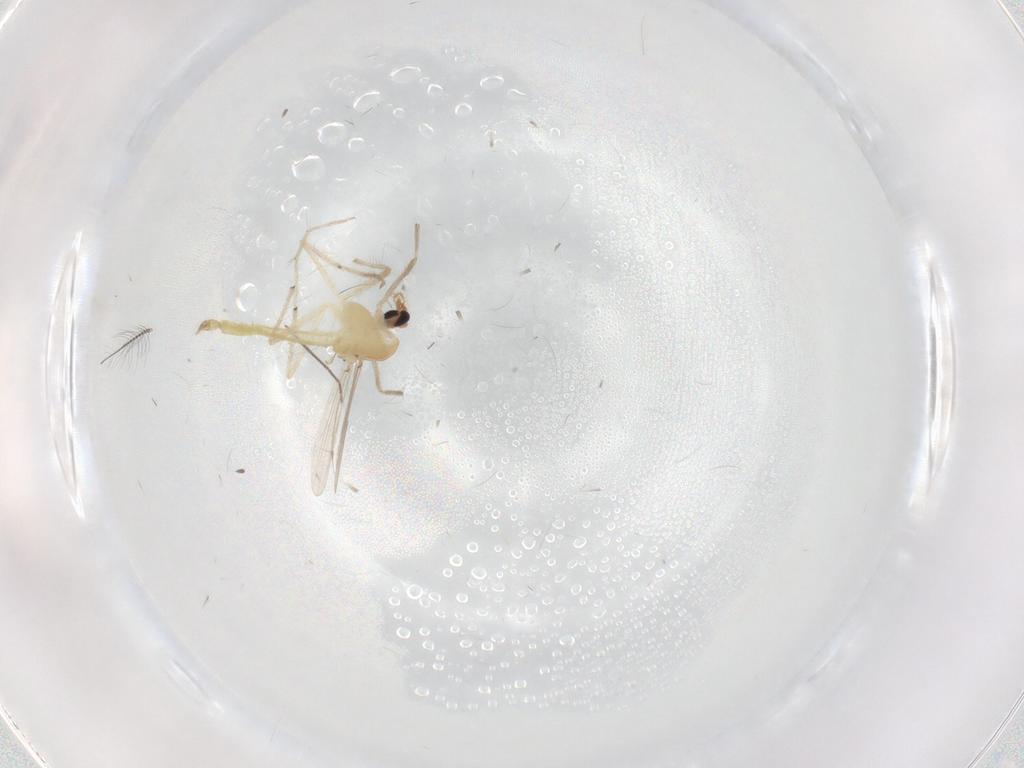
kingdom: Animalia
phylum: Arthropoda
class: Insecta
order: Diptera
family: Chironomidae
